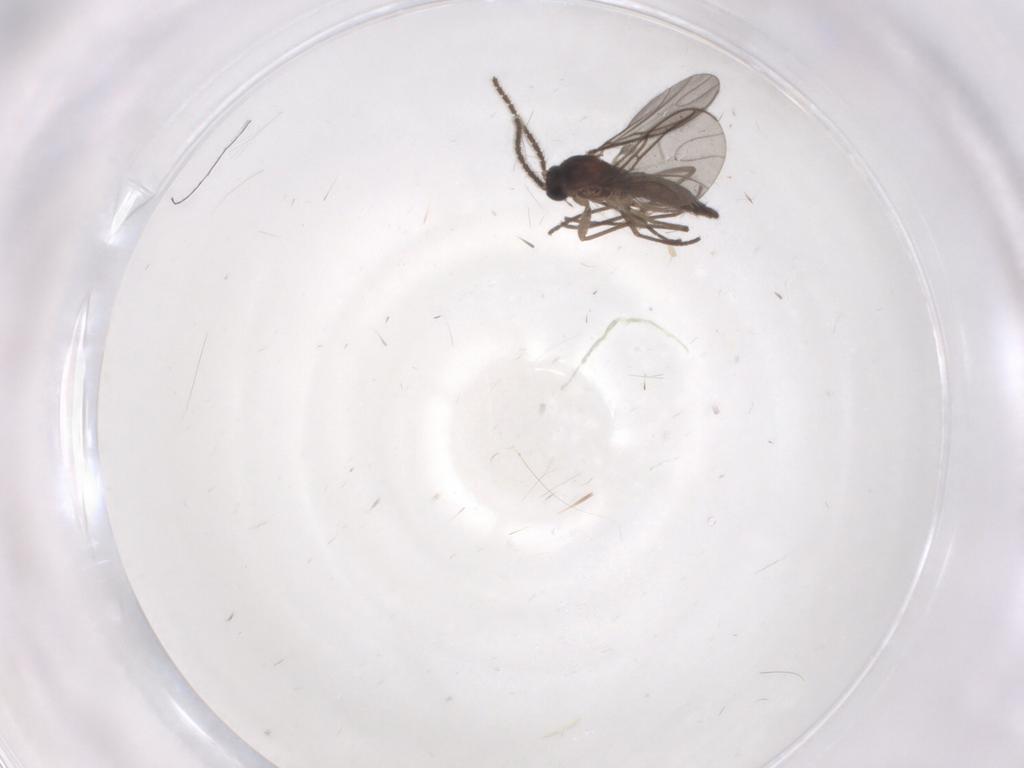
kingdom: Animalia
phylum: Arthropoda
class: Insecta
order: Diptera
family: Sciaridae
